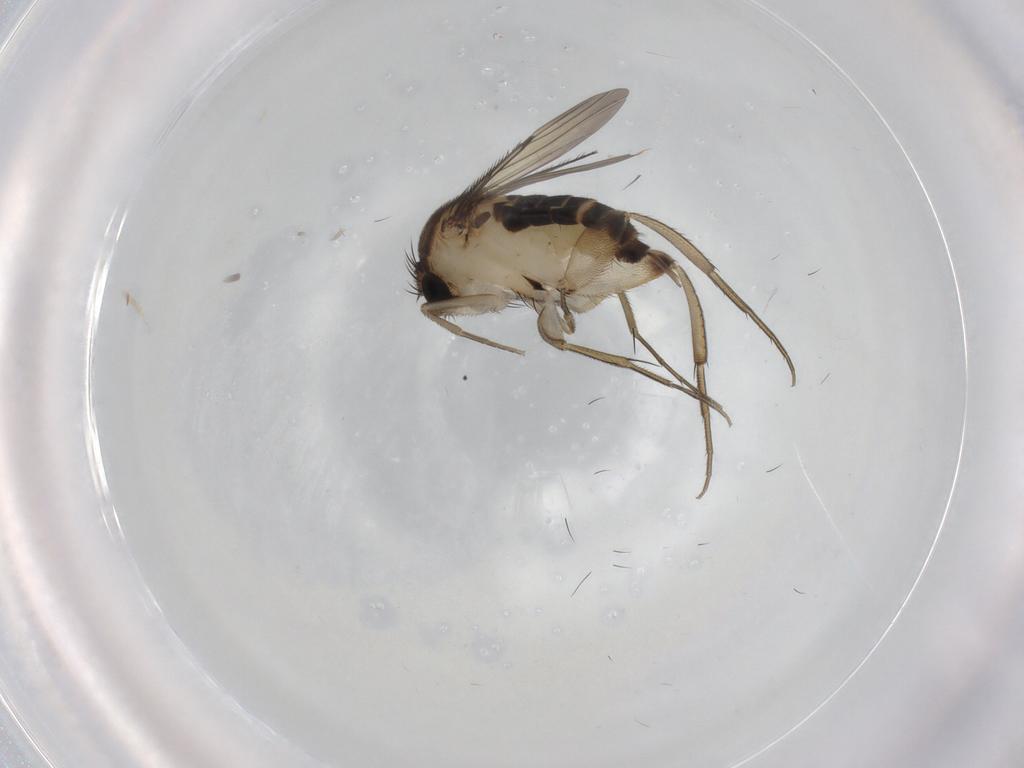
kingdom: Animalia
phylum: Arthropoda
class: Insecta
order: Diptera
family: Phoridae
